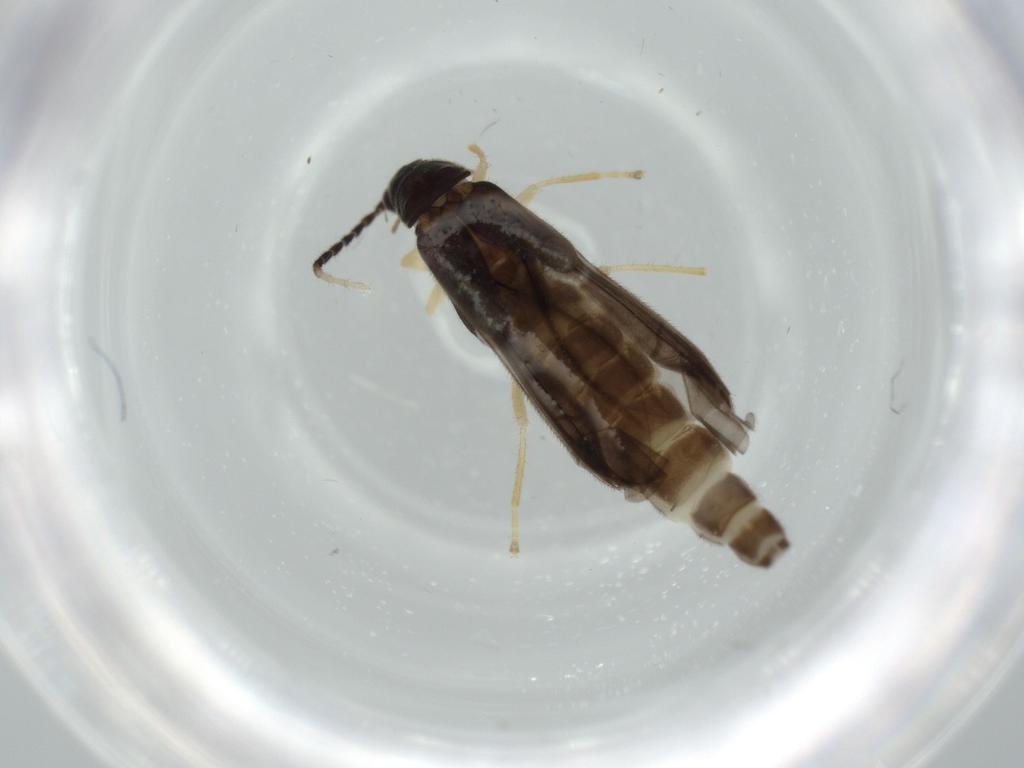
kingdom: Animalia
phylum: Arthropoda
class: Insecta
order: Coleoptera
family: Cantharidae
